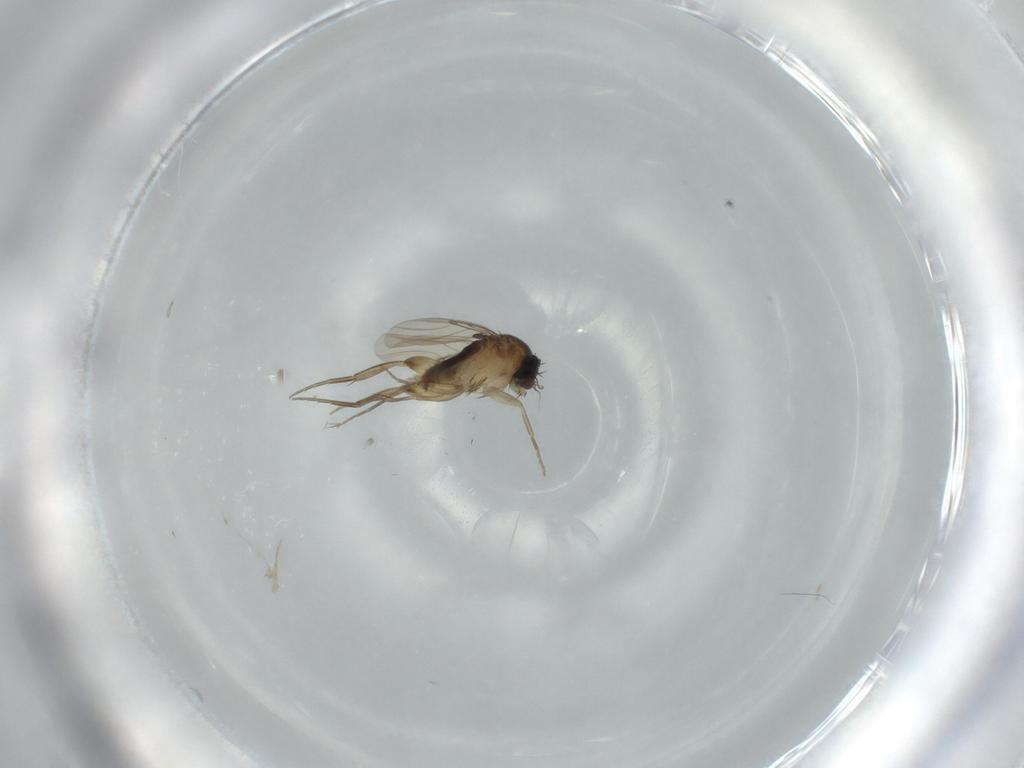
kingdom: Animalia
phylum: Arthropoda
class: Insecta
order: Diptera
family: Phoridae
